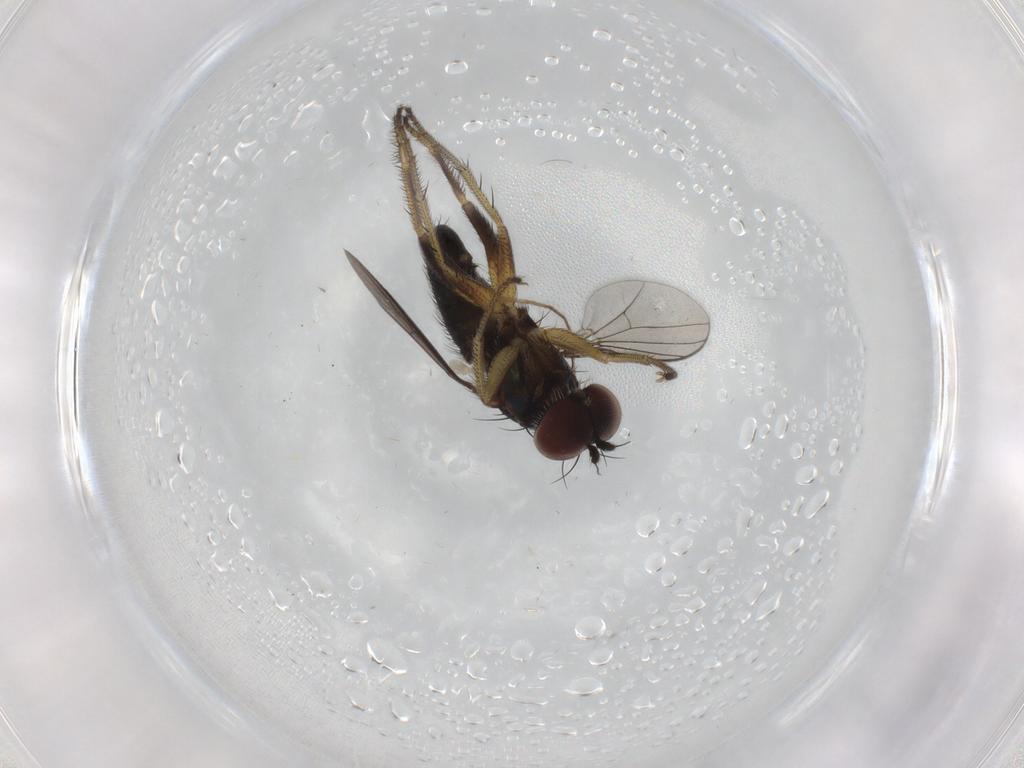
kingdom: Animalia
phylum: Arthropoda
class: Insecta
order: Diptera
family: Dolichopodidae
